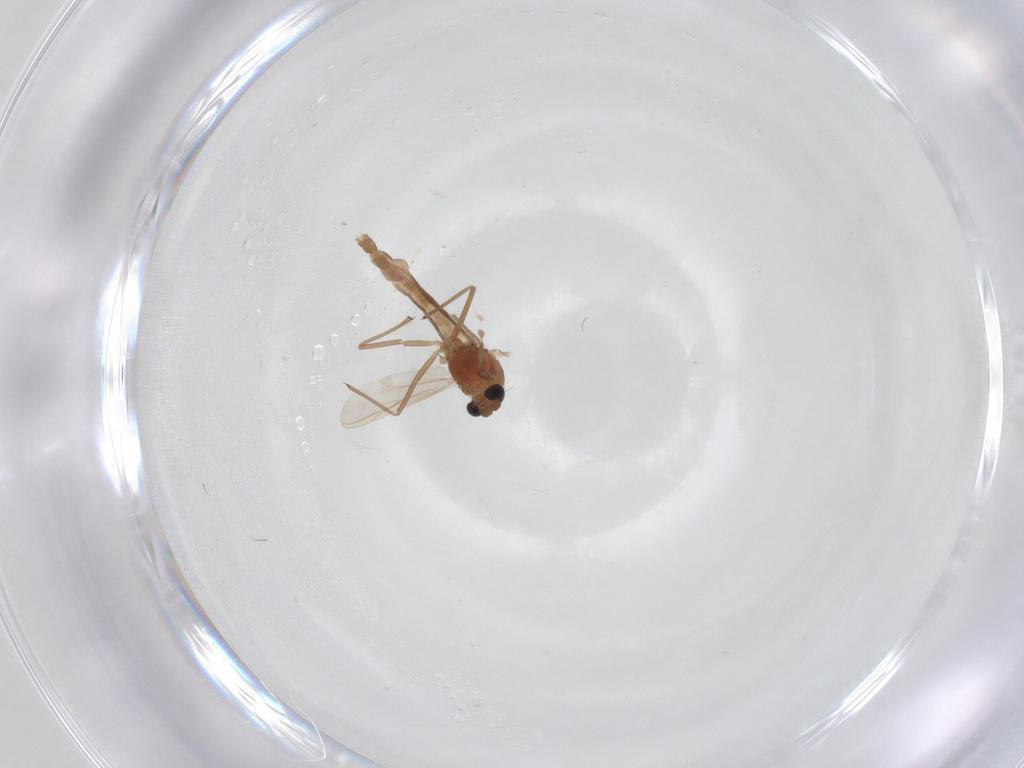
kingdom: Animalia
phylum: Arthropoda
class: Insecta
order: Diptera
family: Chironomidae
